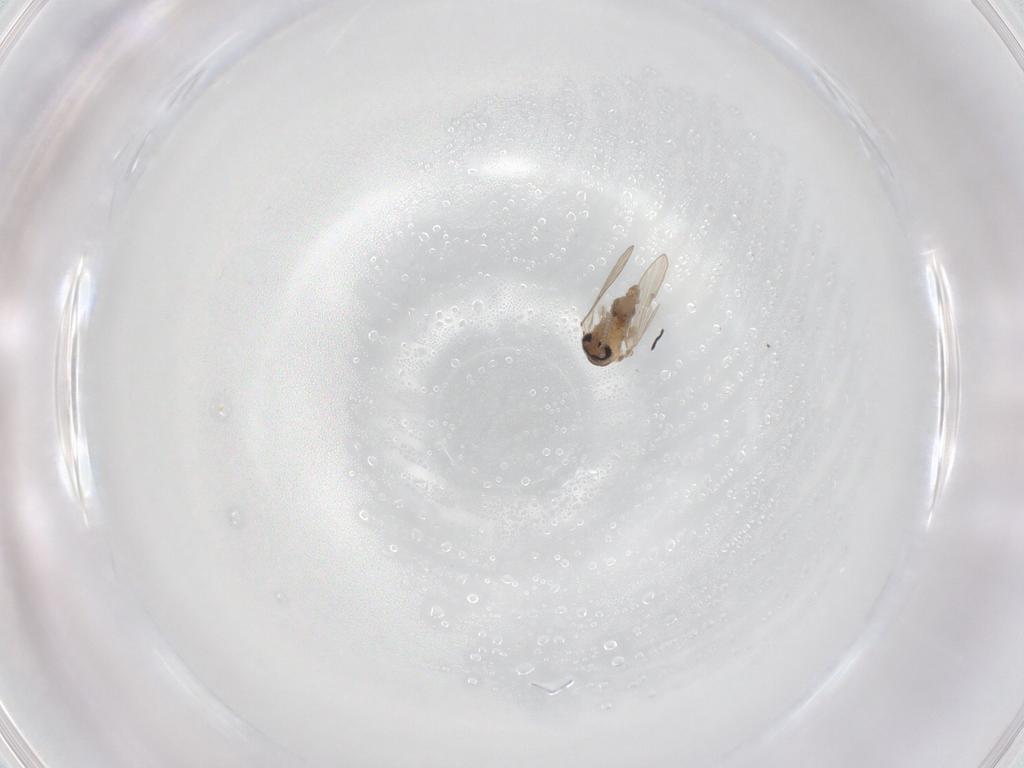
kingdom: Animalia
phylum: Arthropoda
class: Insecta
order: Diptera
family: Psychodidae
